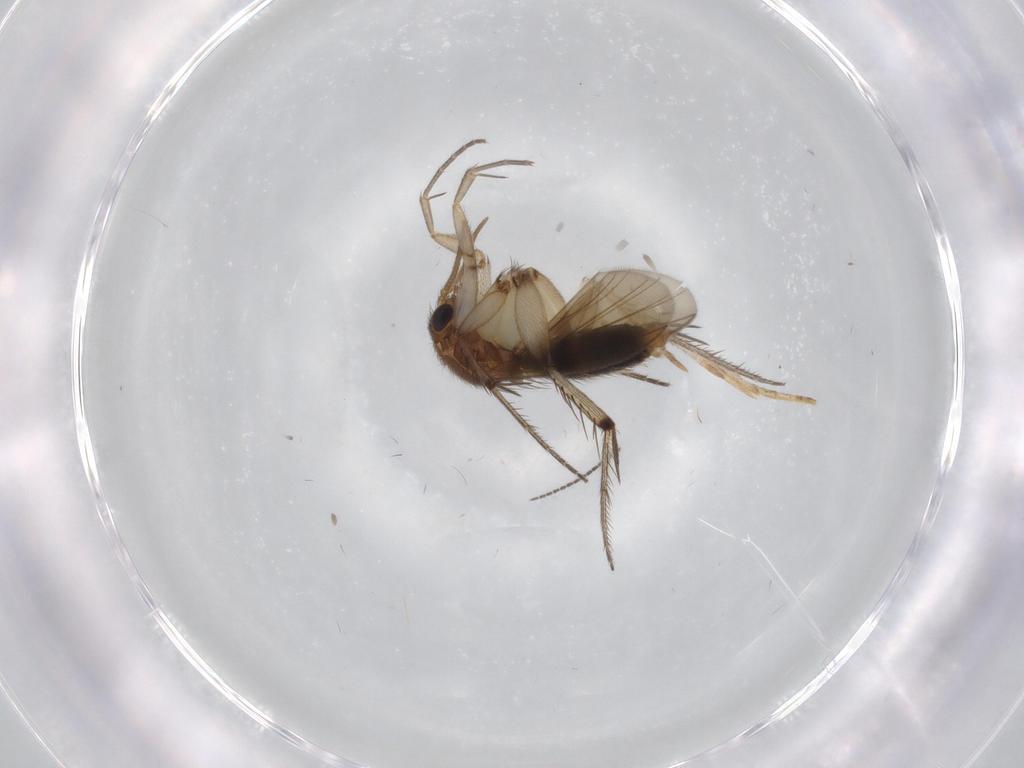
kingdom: Animalia
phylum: Arthropoda
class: Insecta
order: Diptera
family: Mycetophilidae
